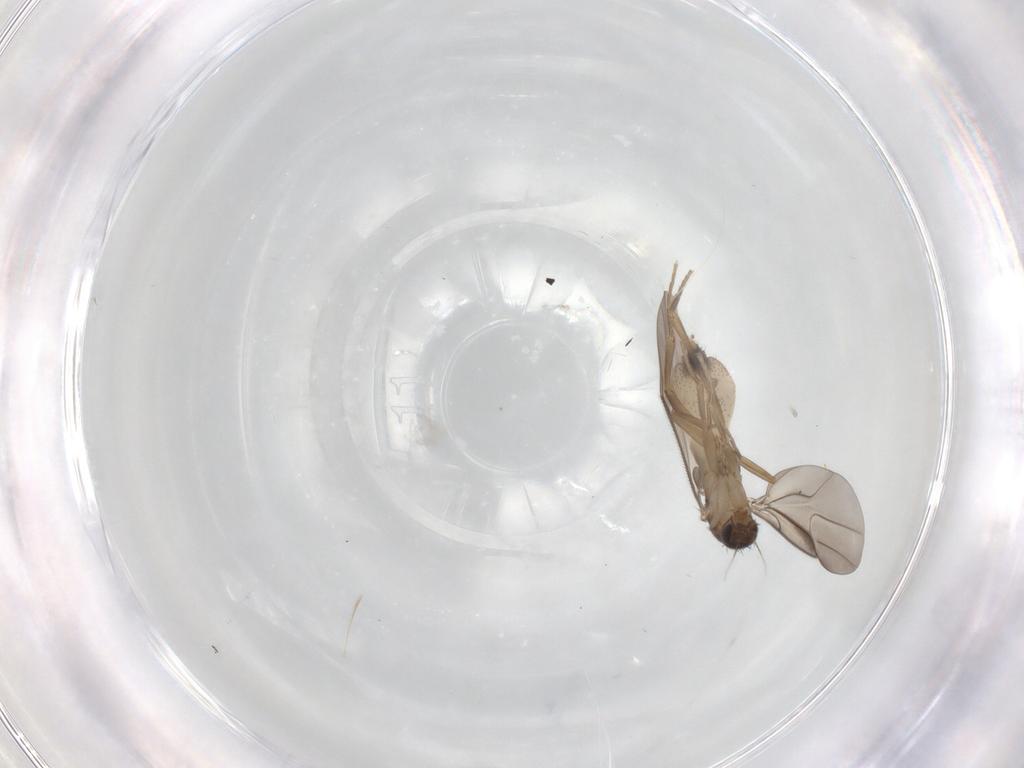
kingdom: Animalia
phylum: Arthropoda
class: Insecta
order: Diptera
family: Phoridae
